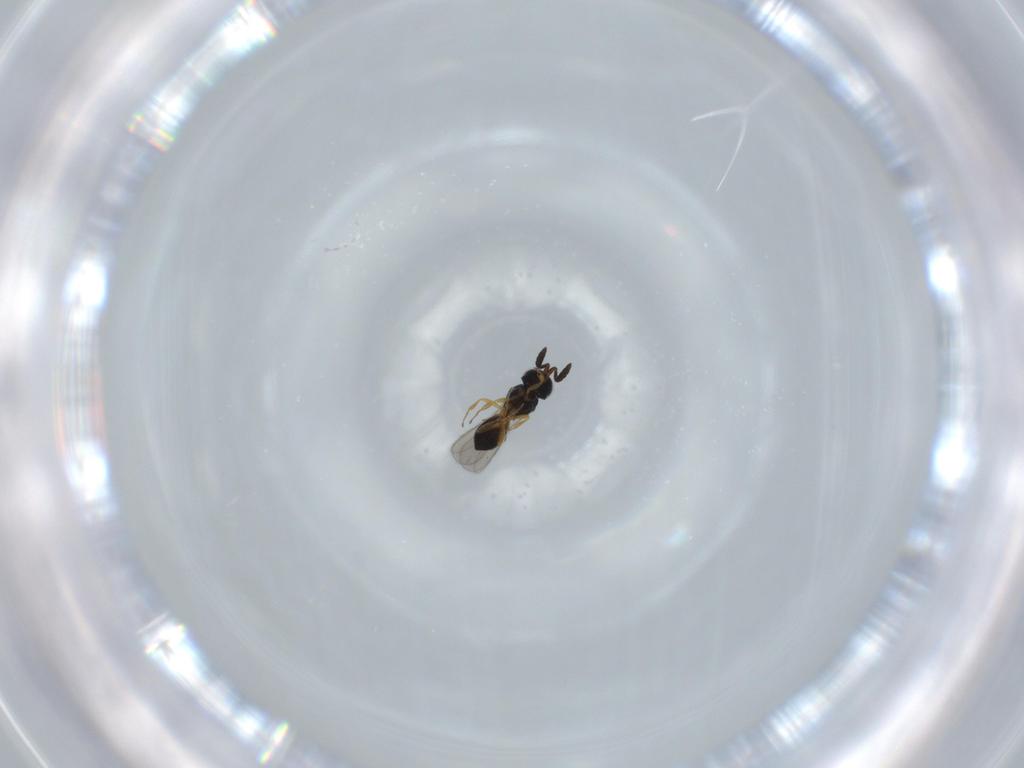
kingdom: Animalia
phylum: Arthropoda
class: Insecta
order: Hymenoptera
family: Scelionidae
